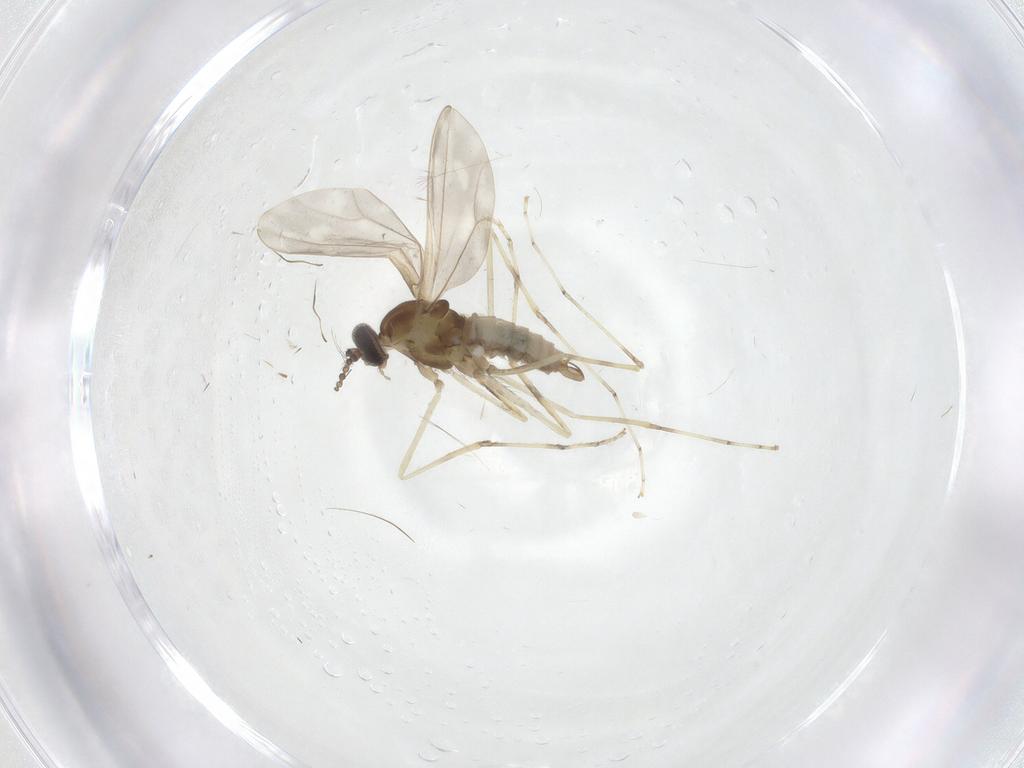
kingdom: Animalia
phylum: Arthropoda
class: Insecta
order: Diptera
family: Cecidomyiidae
